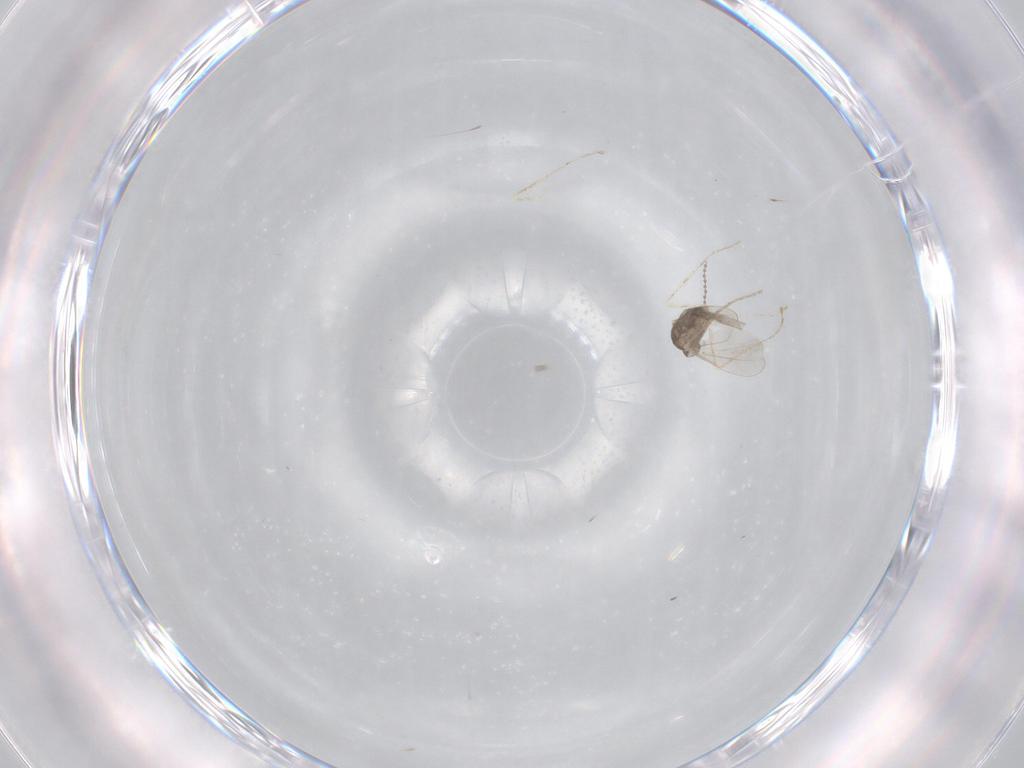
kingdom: Animalia
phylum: Arthropoda
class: Insecta
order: Diptera
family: Cecidomyiidae
